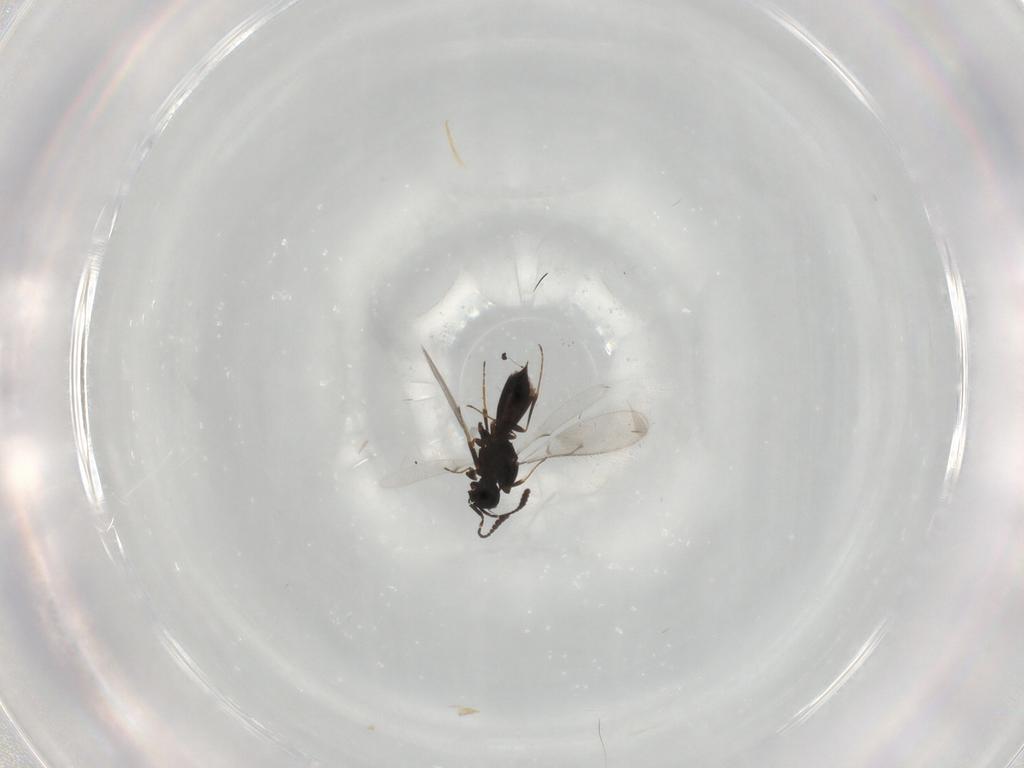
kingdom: Animalia
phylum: Arthropoda
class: Insecta
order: Hymenoptera
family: Scelionidae
